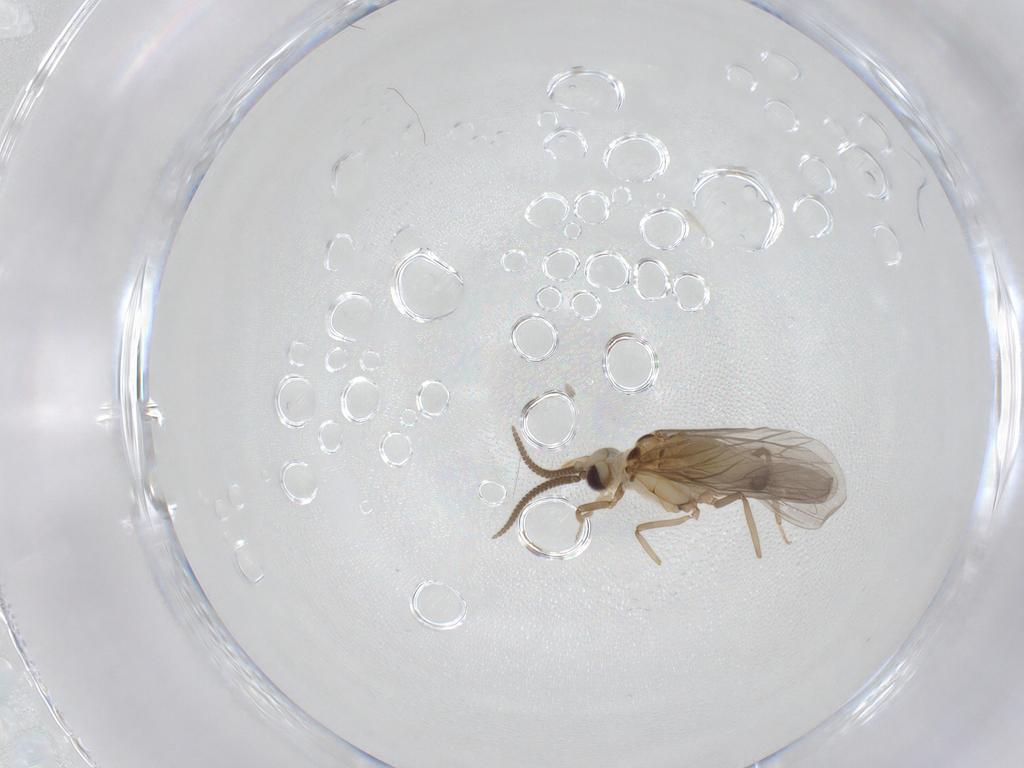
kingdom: Animalia
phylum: Arthropoda
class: Insecta
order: Neuroptera
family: Coniopterygidae
